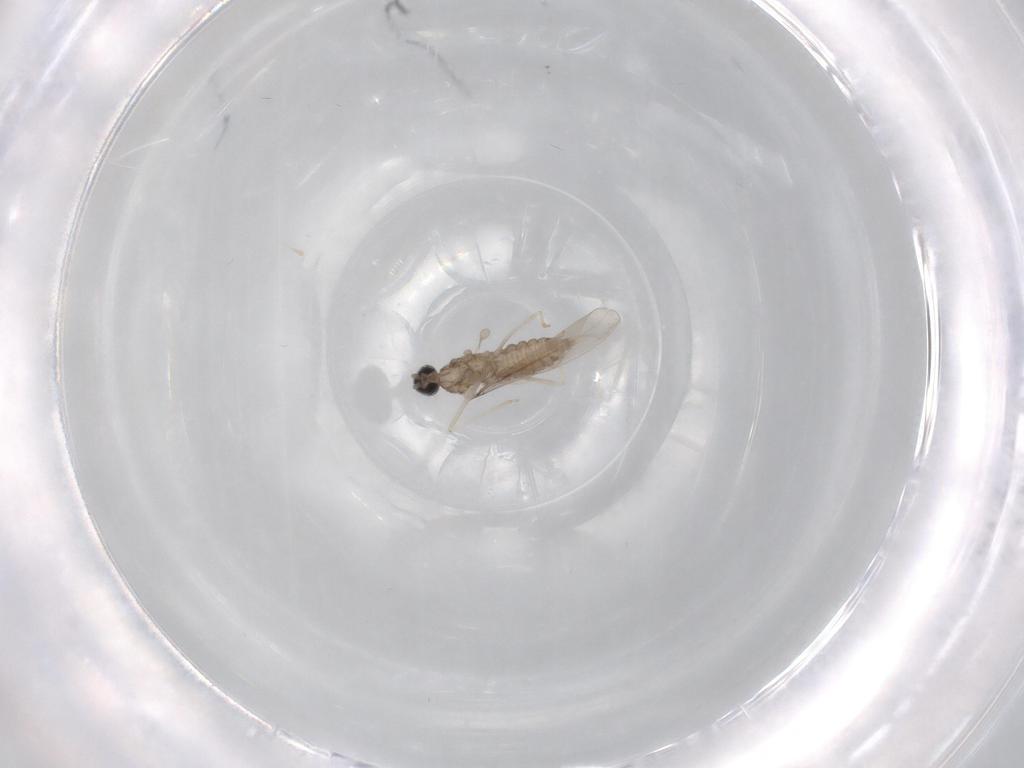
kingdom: Animalia
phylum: Arthropoda
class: Insecta
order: Diptera
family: Cecidomyiidae
